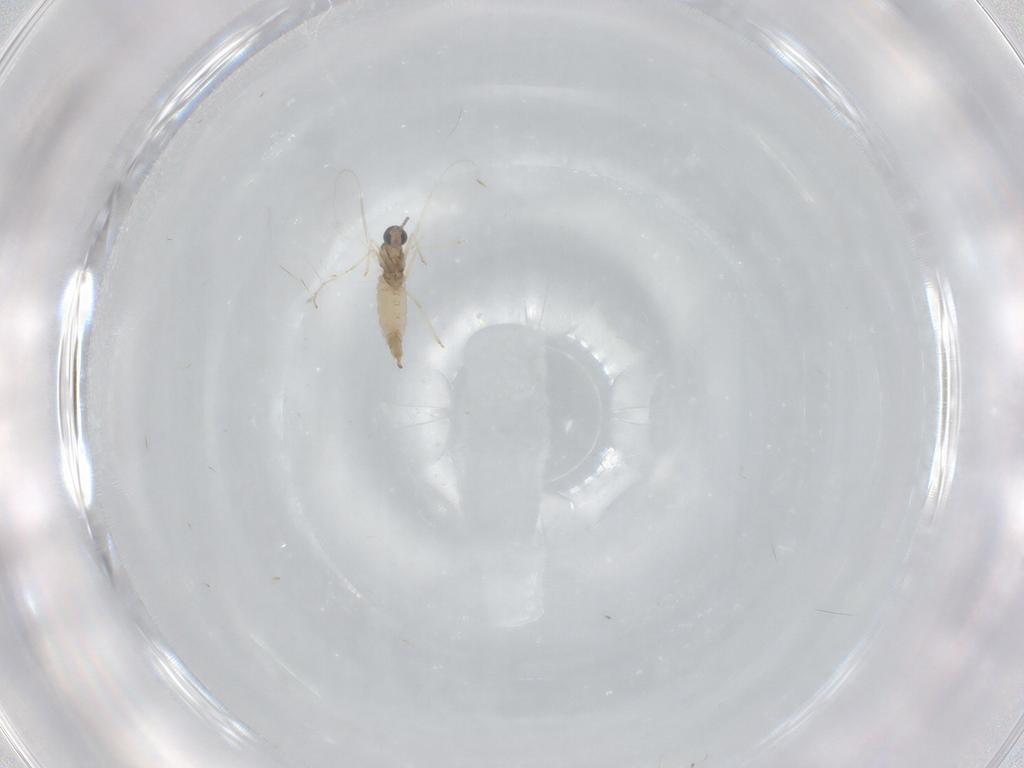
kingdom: Animalia
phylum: Arthropoda
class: Insecta
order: Diptera
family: Cecidomyiidae
